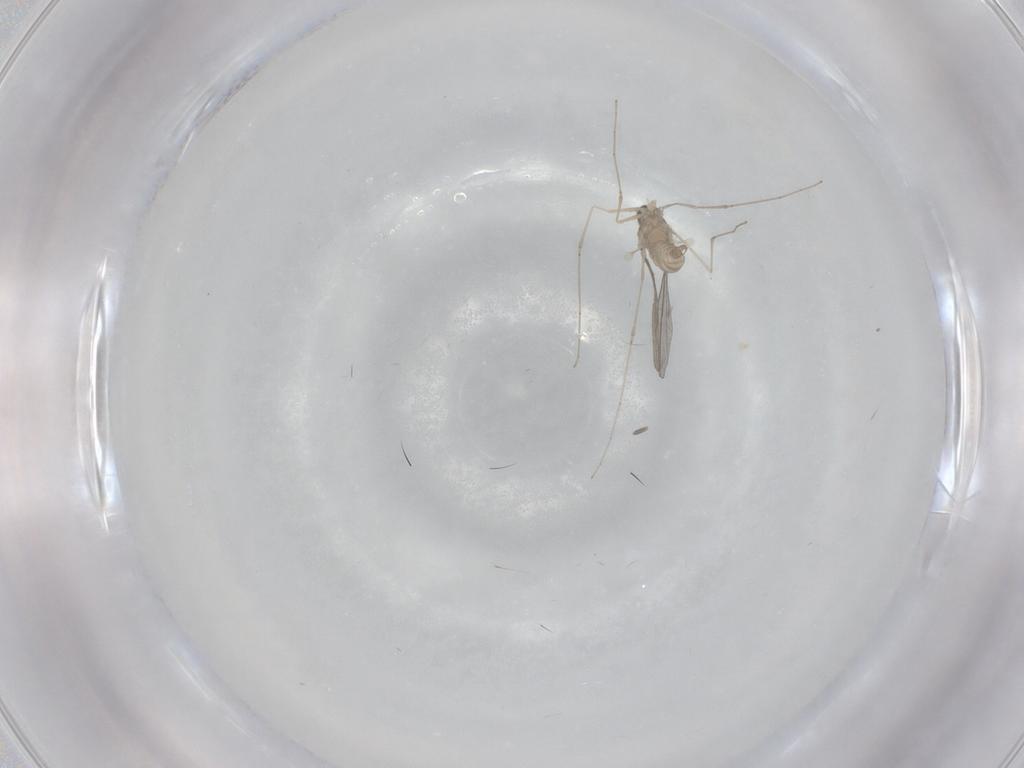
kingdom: Animalia
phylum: Arthropoda
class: Insecta
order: Diptera
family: Cecidomyiidae
